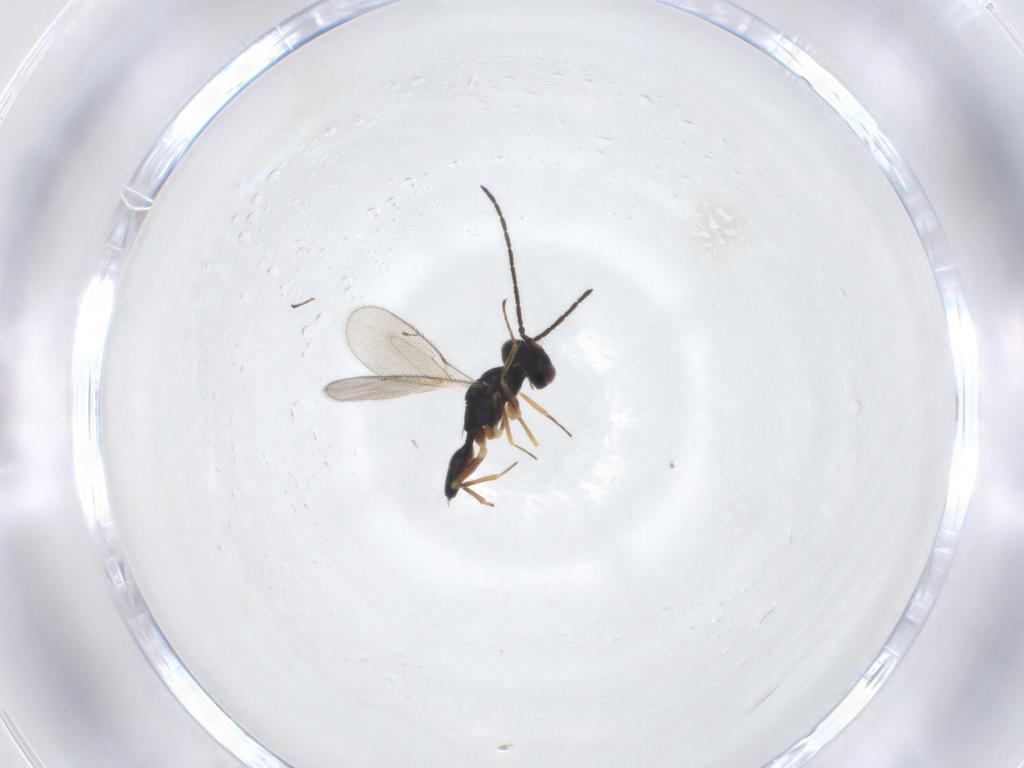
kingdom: Animalia
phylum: Arthropoda
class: Insecta
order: Hymenoptera
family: Pteromalidae
